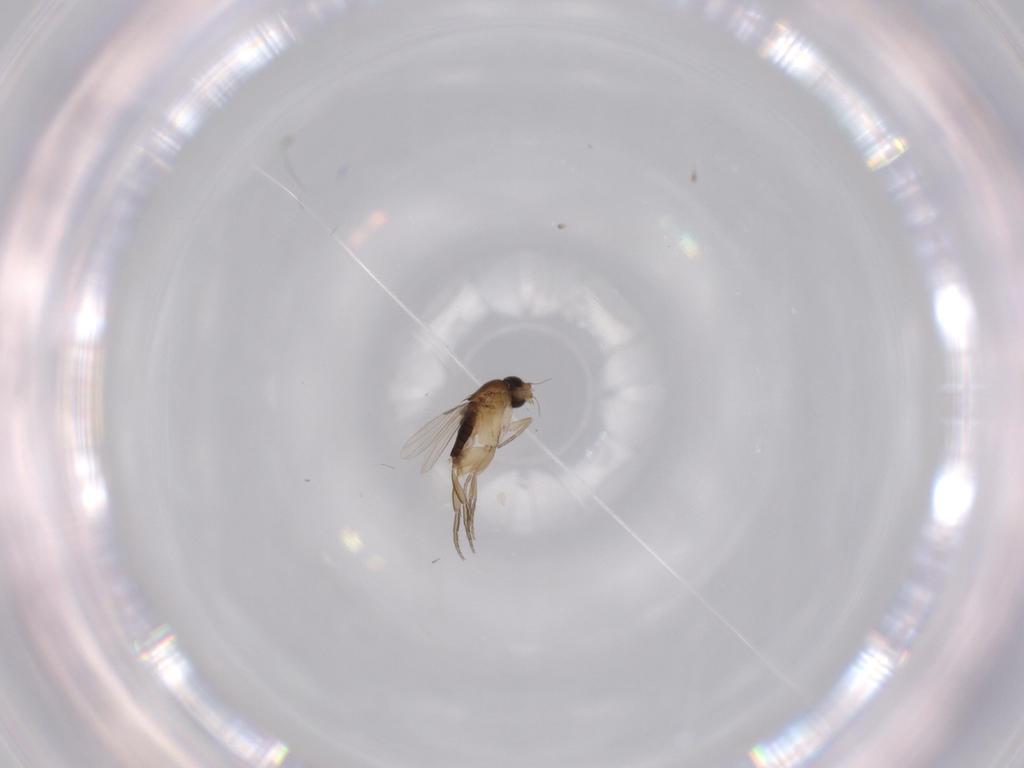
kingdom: Animalia
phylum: Arthropoda
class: Insecta
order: Diptera
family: Phoridae
